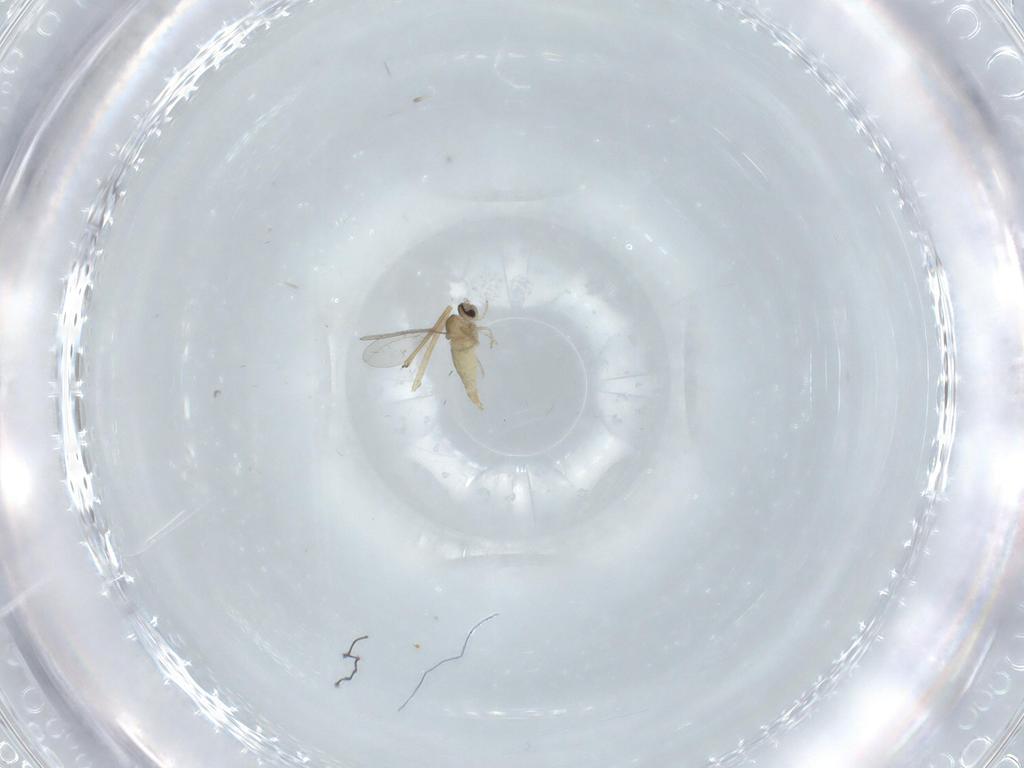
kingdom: Animalia
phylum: Arthropoda
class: Insecta
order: Diptera
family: Cecidomyiidae
